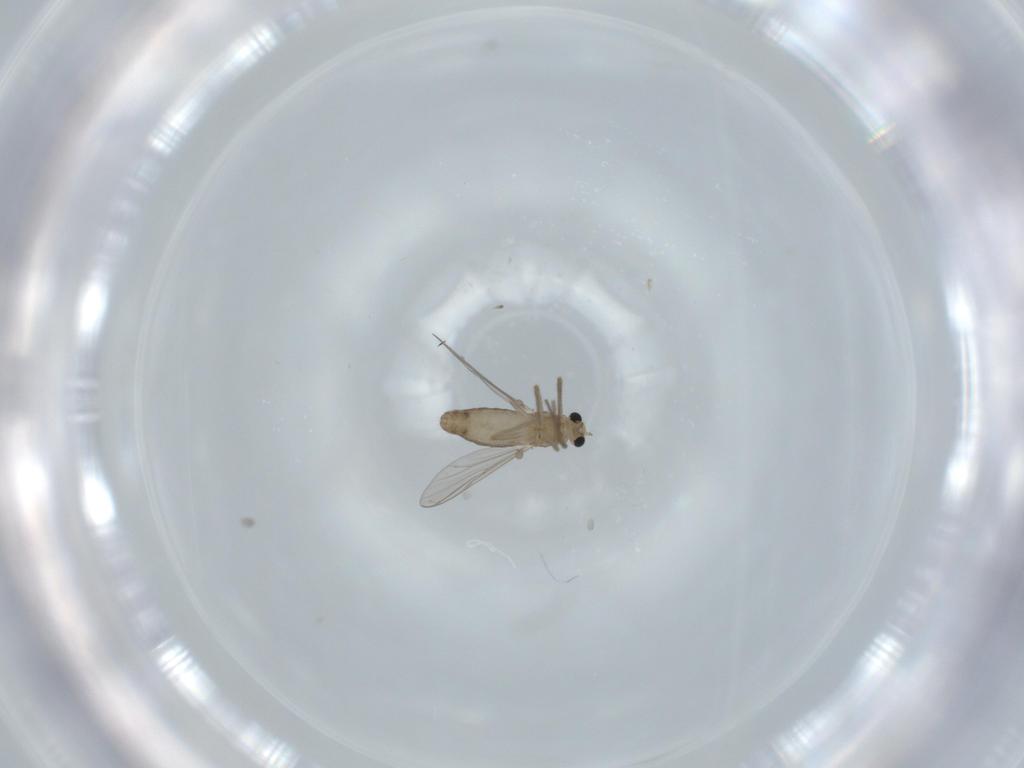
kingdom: Animalia
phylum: Arthropoda
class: Insecta
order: Diptera
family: Chironomidae
